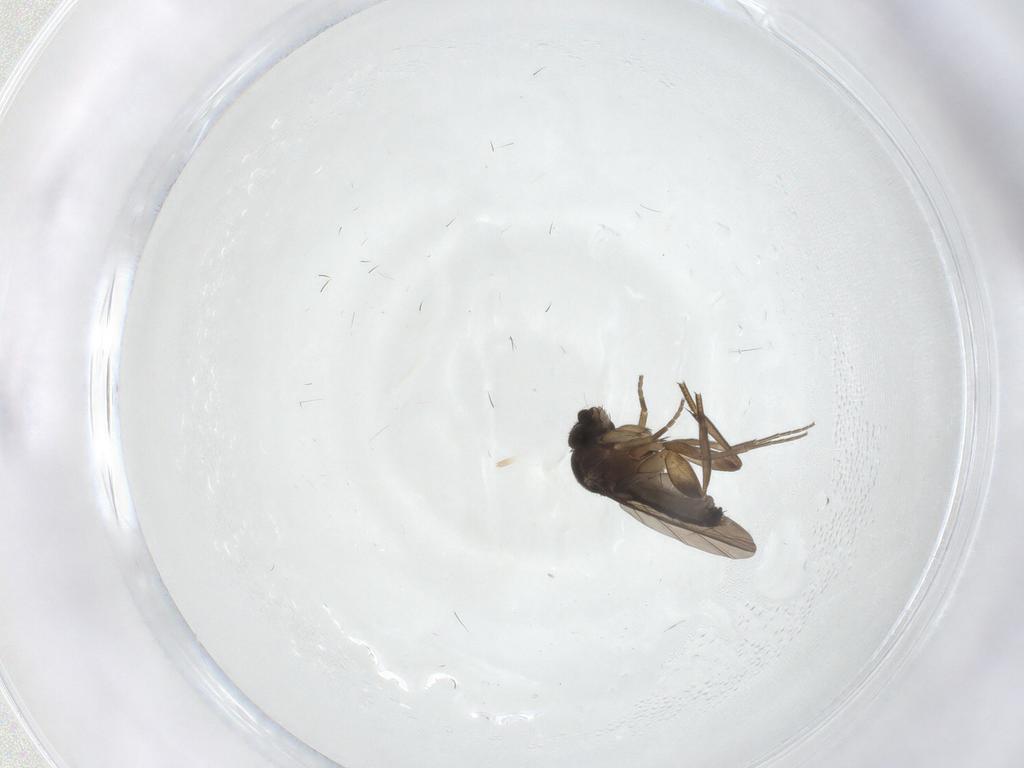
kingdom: Animalia
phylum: Arthropoda
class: Insecta
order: Diptera
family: Phoridae
